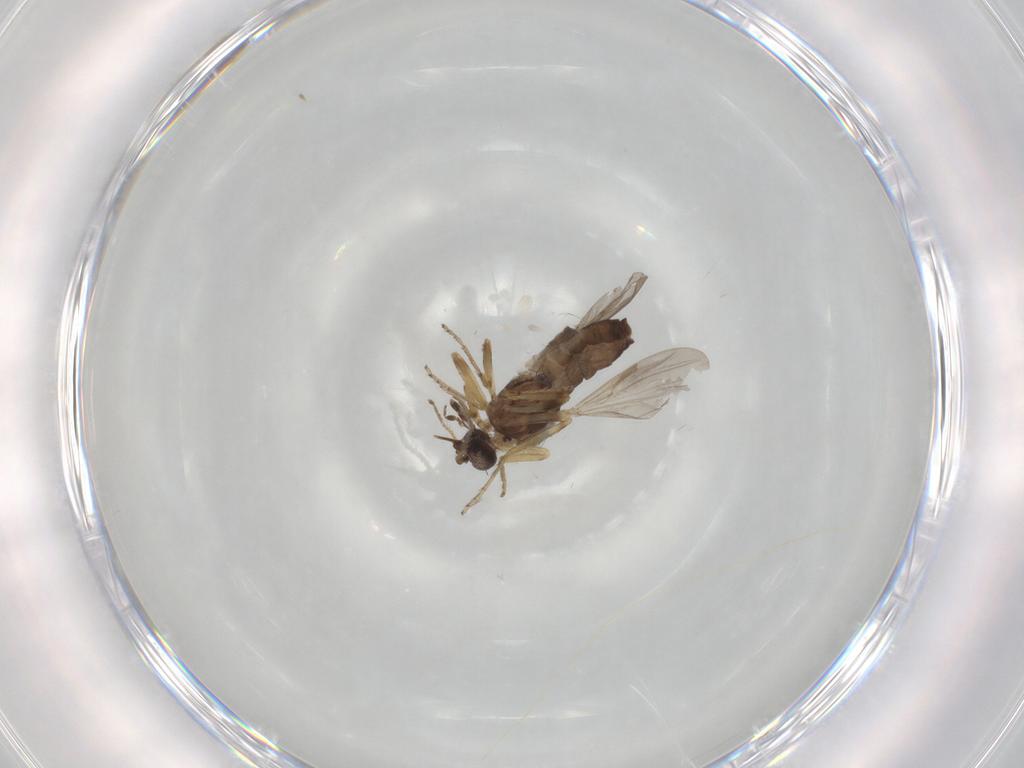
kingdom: Animalia
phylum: Arthropoda
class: Insecta
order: Diptera
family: Ceratopogonidae
